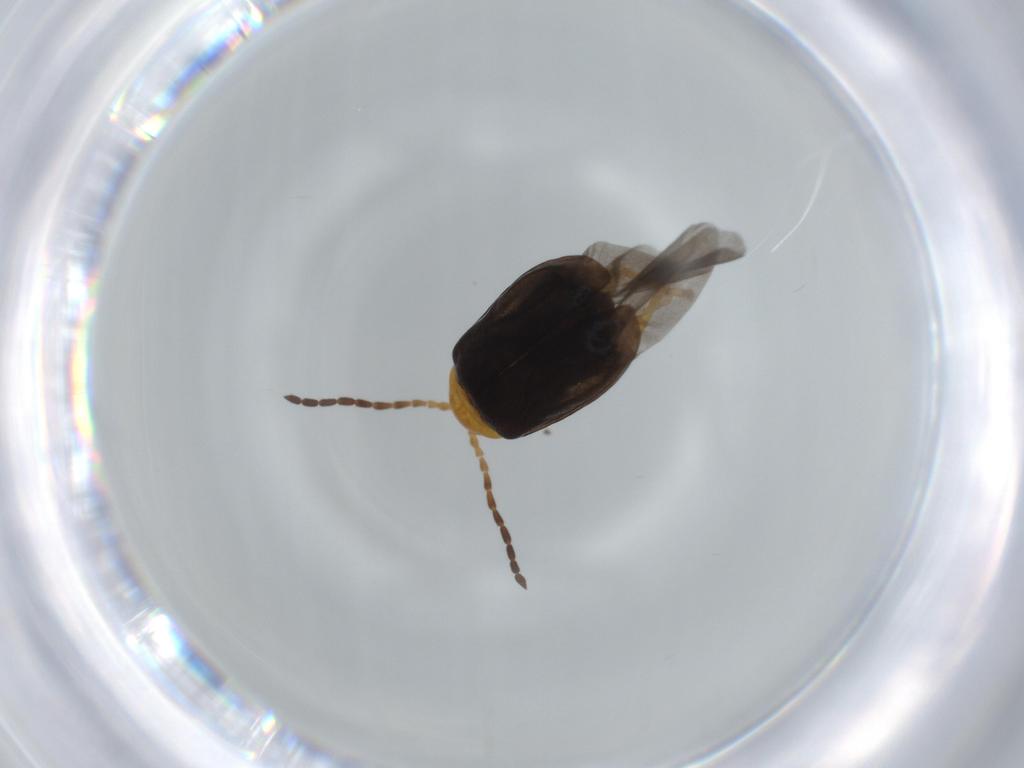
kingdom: Animalia
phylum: Arthropoda
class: Insecta
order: Coleoptera
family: Chrysomelidae
